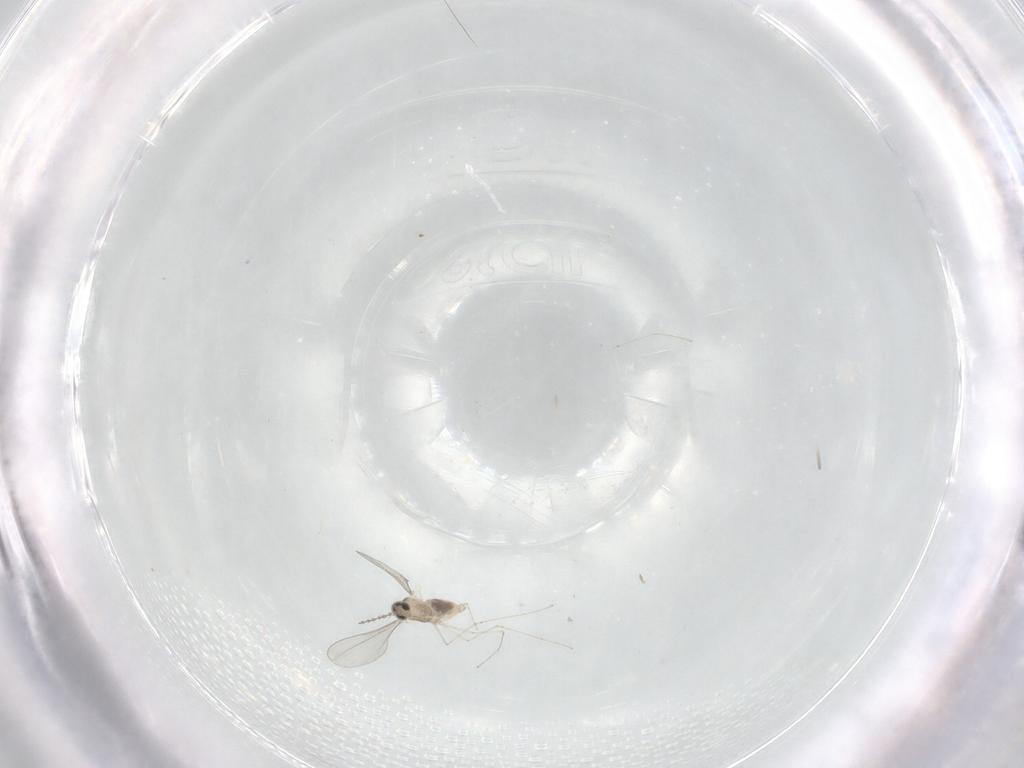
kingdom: Animalia
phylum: Arthropoda
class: Insecta
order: Diptera
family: Cecidomyiidae
